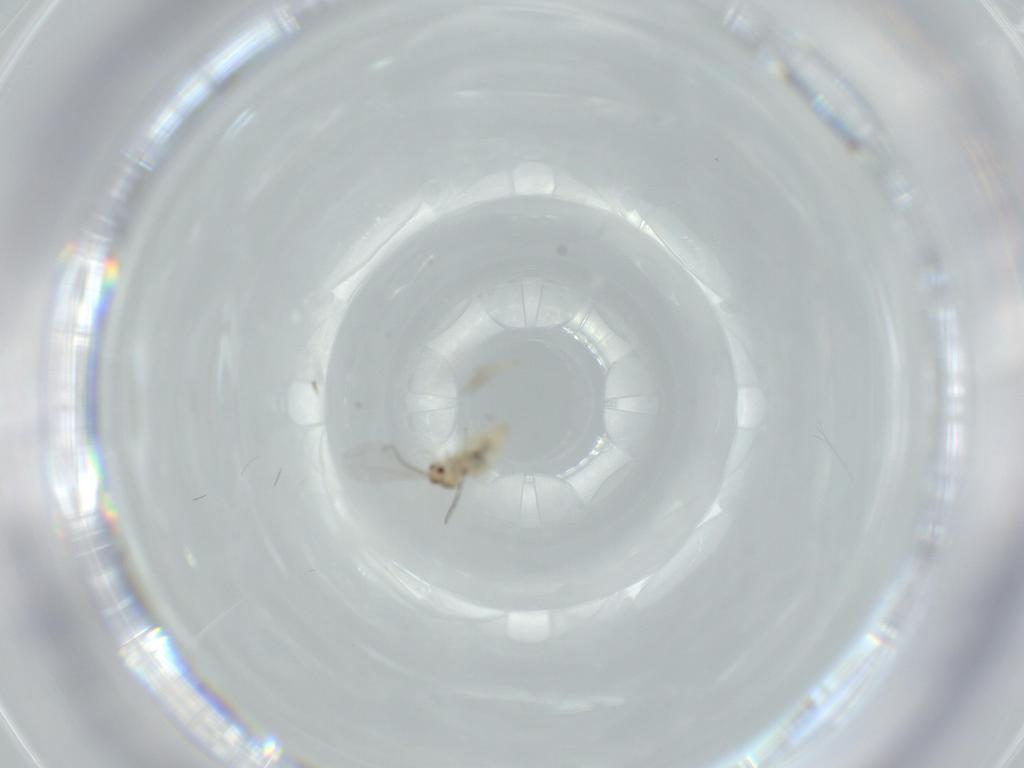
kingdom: Animalia
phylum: Arthropoda
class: Insecta
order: Diptera
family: Cecidomyiidae
